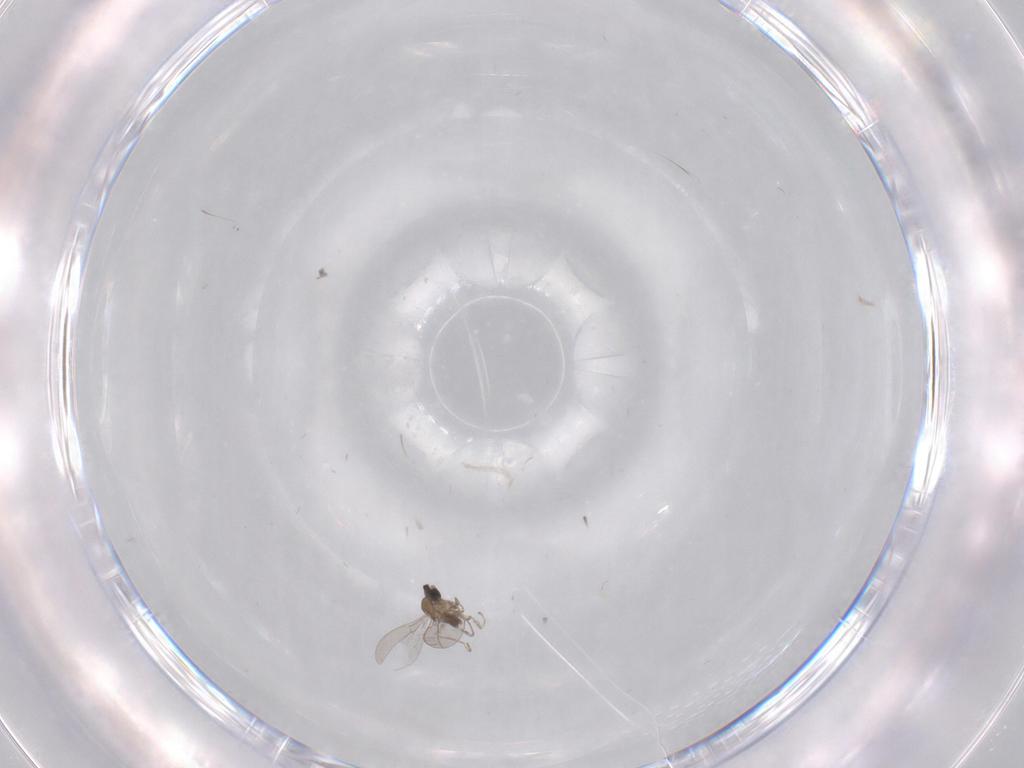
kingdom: Animalia
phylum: Arthropoda
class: Insecta
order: Diptera
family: Cecidomyiidae
